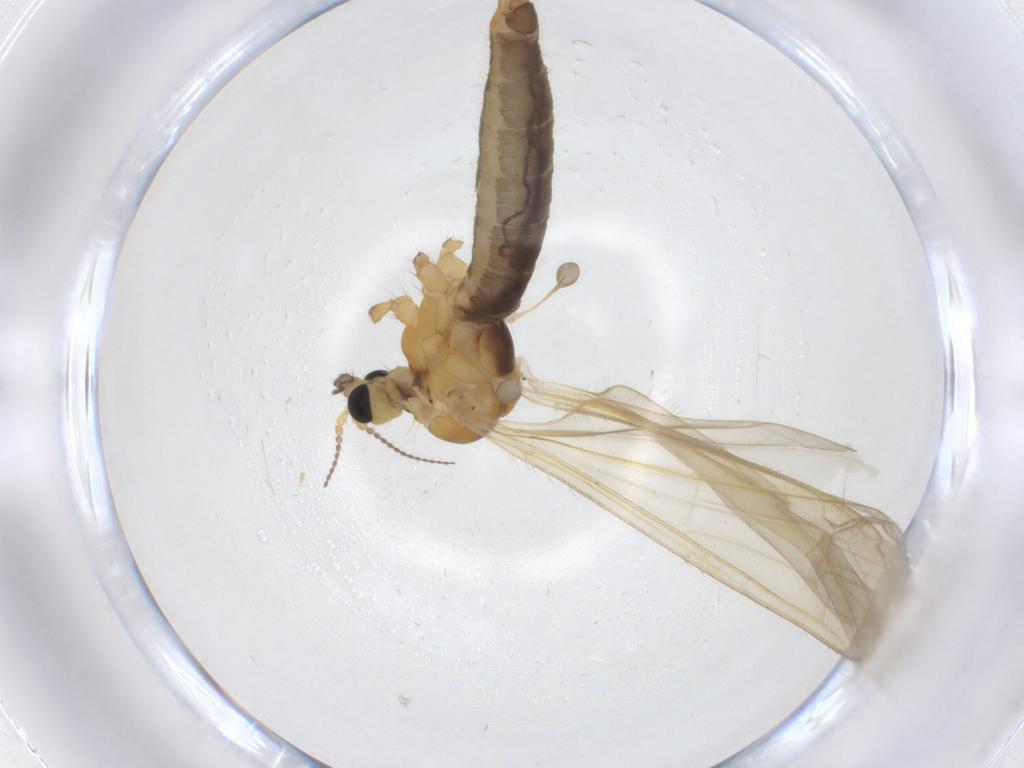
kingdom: Animalia
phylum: Arthropoda
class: Insecta
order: Diptera
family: Limoniidae
